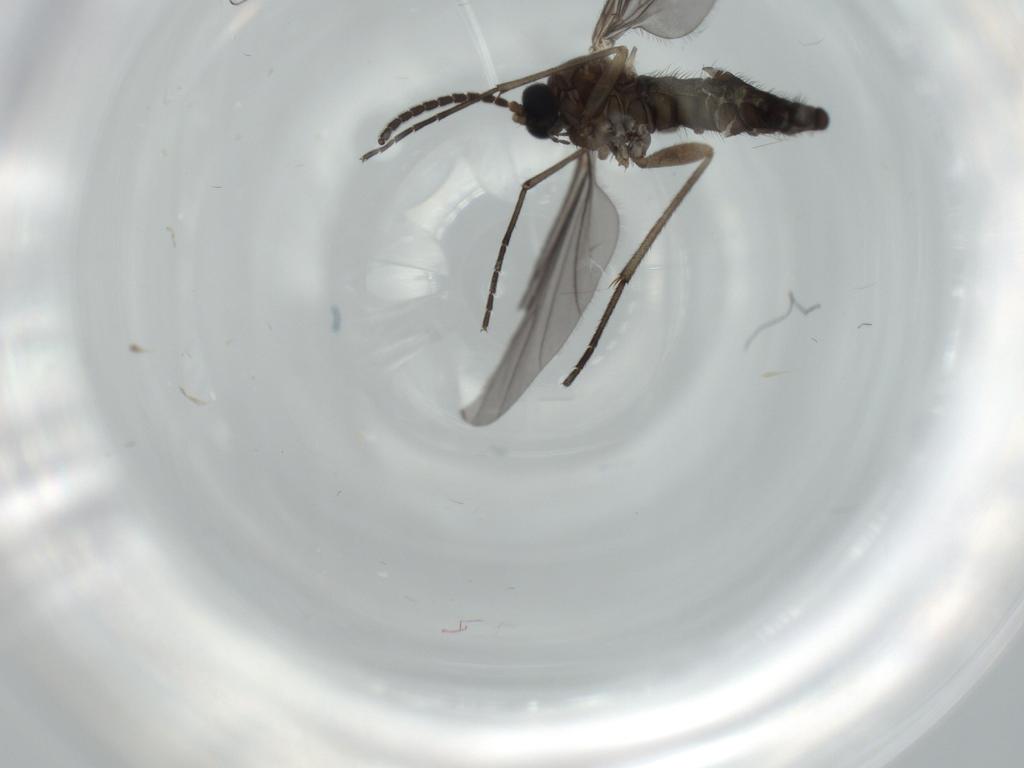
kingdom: Animalia
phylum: Arthropoda
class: Insecta
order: Diptera
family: Sciaridae
